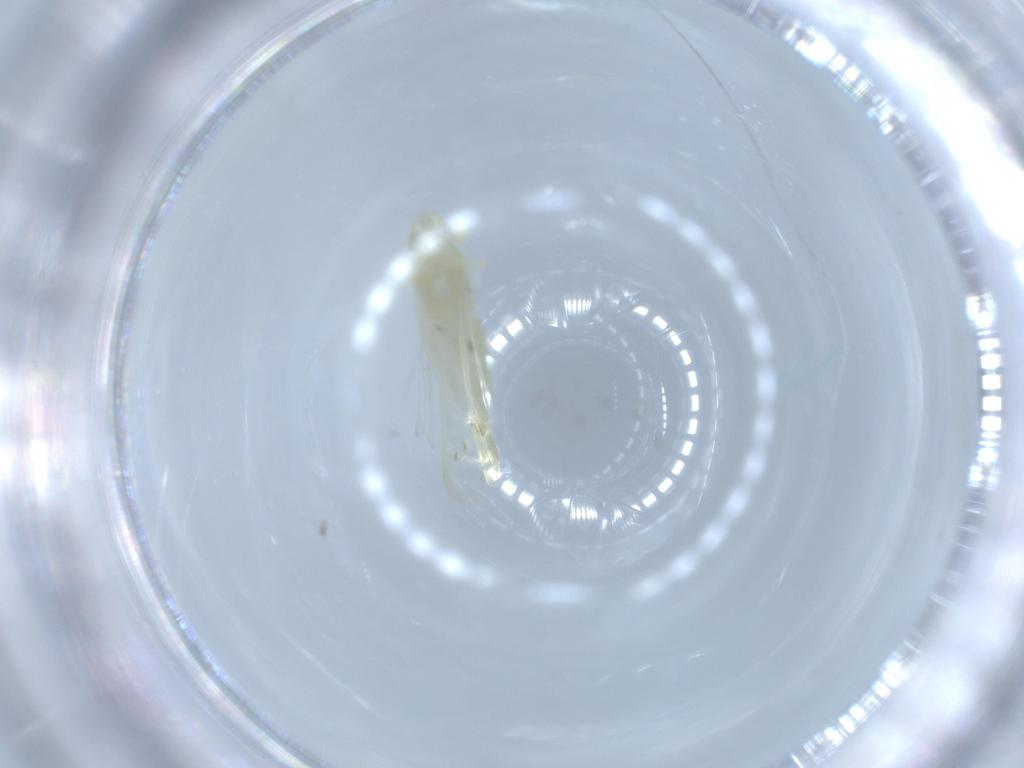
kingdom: Animalia
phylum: Arthropoda
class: Insecta
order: Hemiptera
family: Cicadellidae
